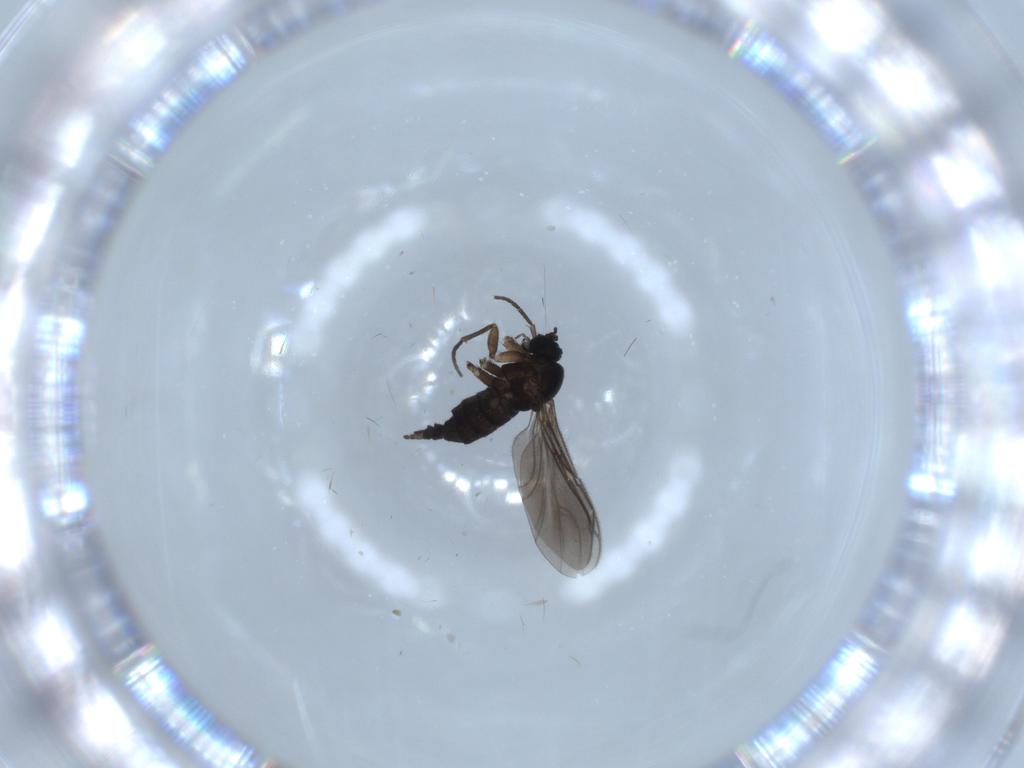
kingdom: Animalia
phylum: Arthropoda
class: Insecta
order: Diptera
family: Sciaridae
